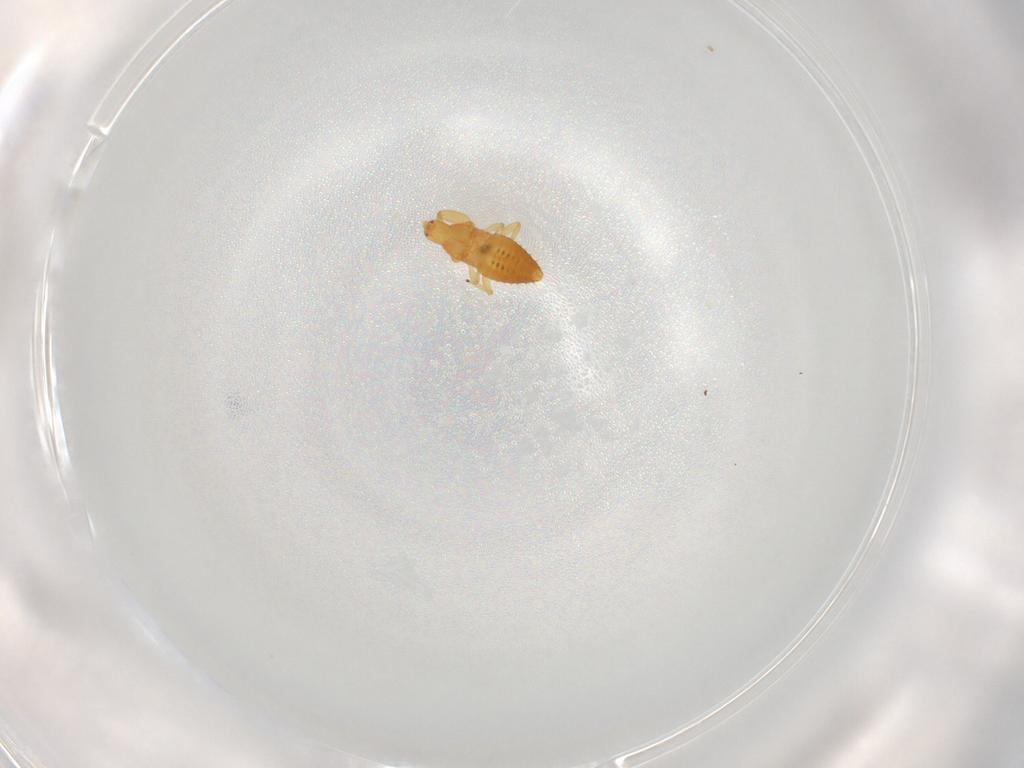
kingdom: Animalia
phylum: Arthropoda
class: Insecta
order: Thysanoptera
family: Phlaeothripidae
